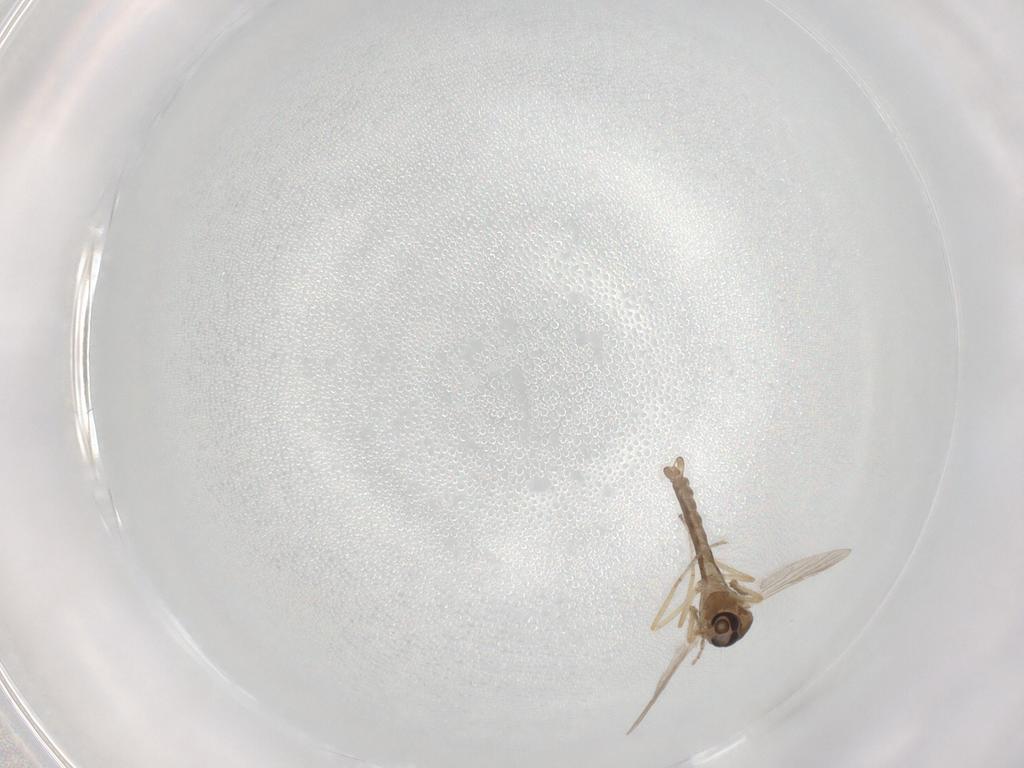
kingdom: Animalia
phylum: Arthropoda
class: Insecta
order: Diptera
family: Ceratopogonidae
